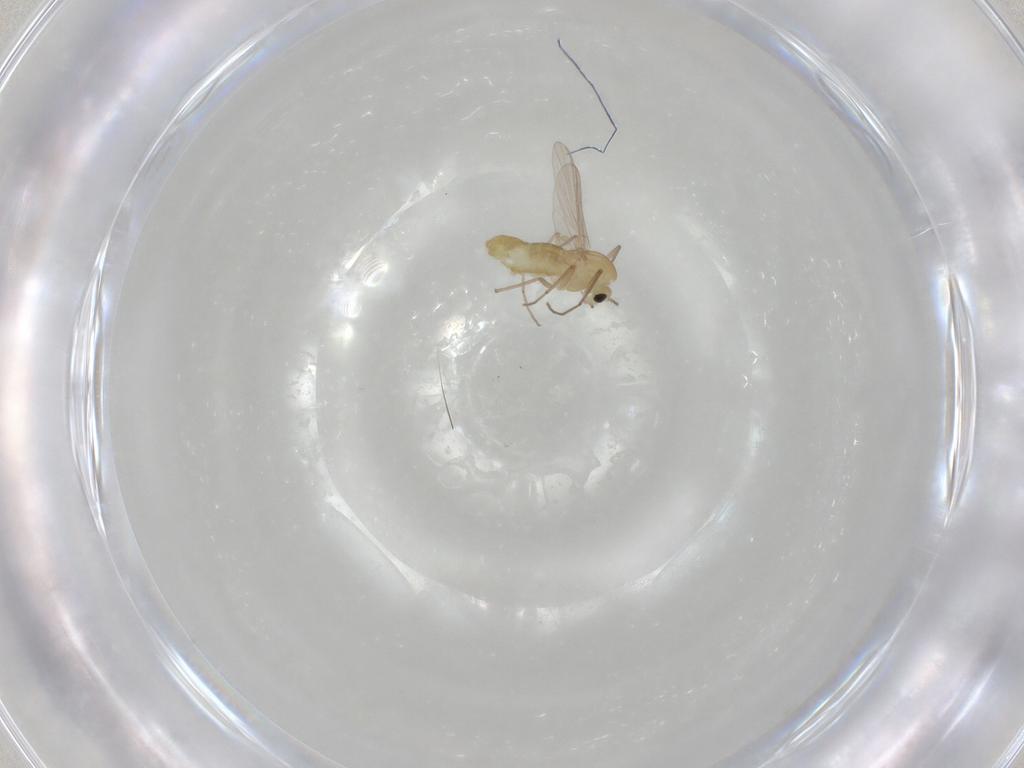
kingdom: Animalia
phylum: Arthropoda
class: Insecta
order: Diptera
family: Chironomidae
